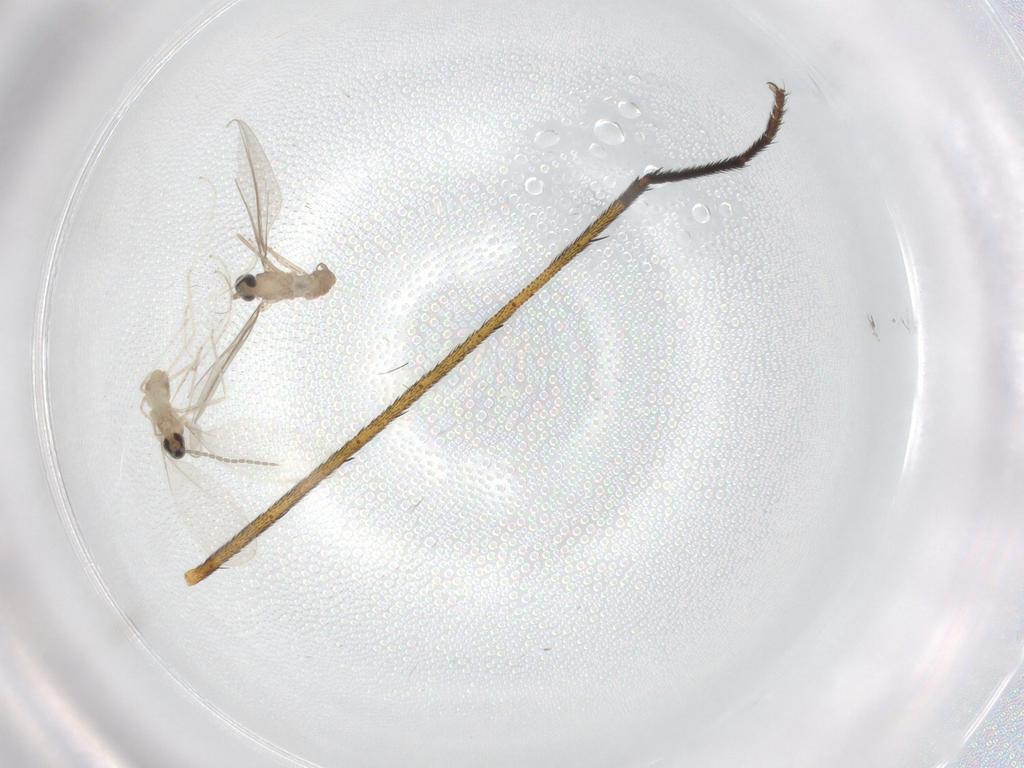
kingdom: Animalia
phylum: Arthropoda
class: Insecta
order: Diptera
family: Cecidomyiidae
